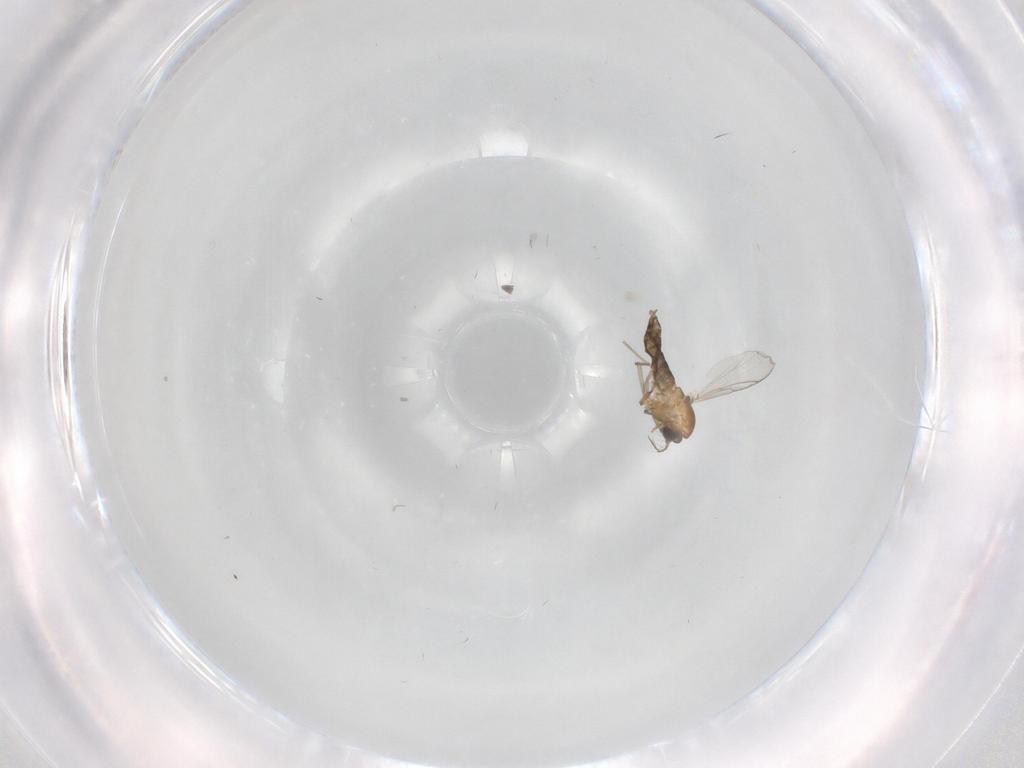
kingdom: Animalia
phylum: Arthropoda
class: Insecta
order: Diptera
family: Chironomidae
